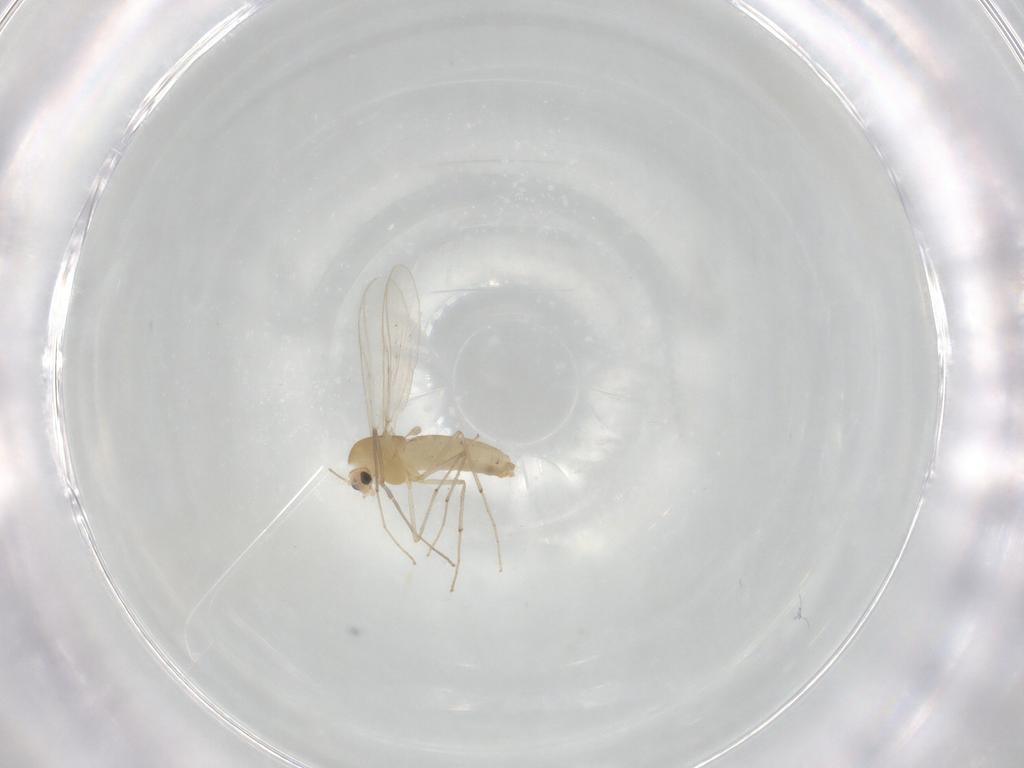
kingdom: Animalia
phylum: Arthropoda
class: Insecta
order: Diptera
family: Chironomidae
